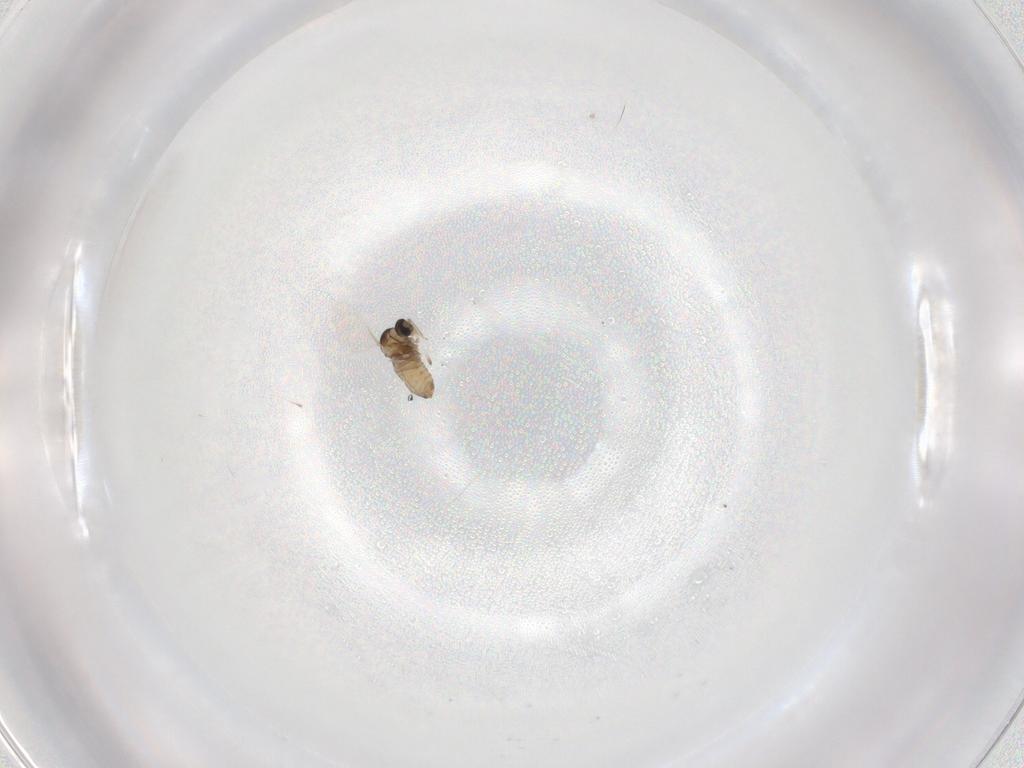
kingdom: Animalia
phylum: Arthropoda
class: Insecta
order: Diptera
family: Cecidomyiidae
